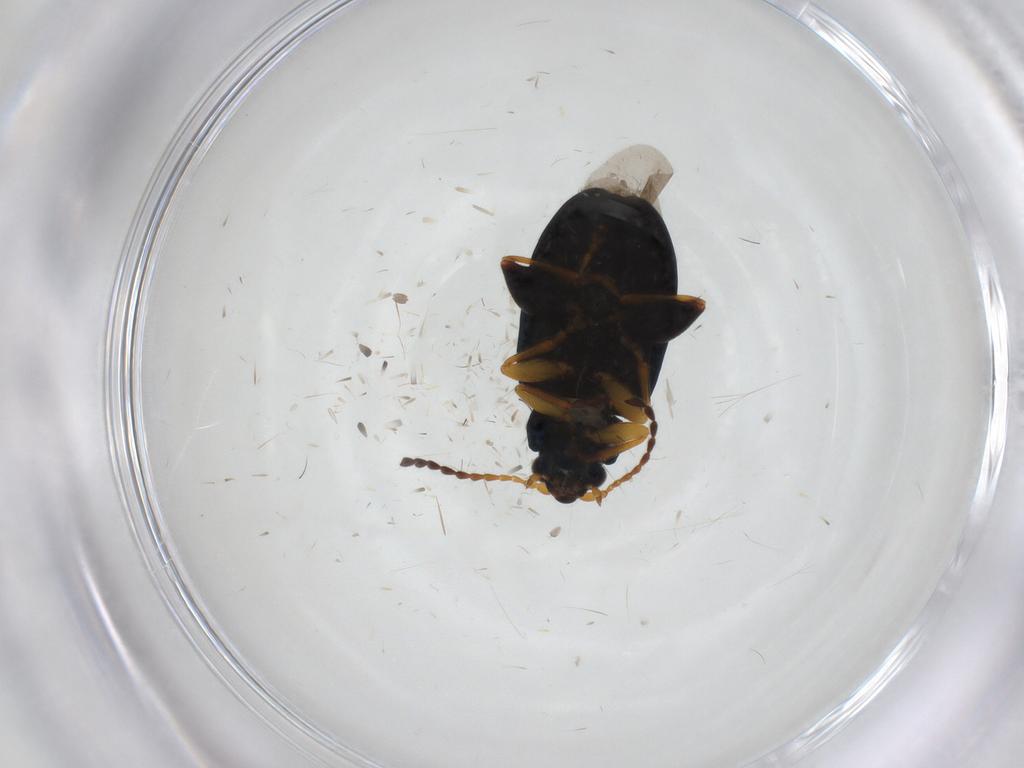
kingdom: Animalia
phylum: Arthropoda
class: Insecta
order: Coleoptera
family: Chrysomelidae
